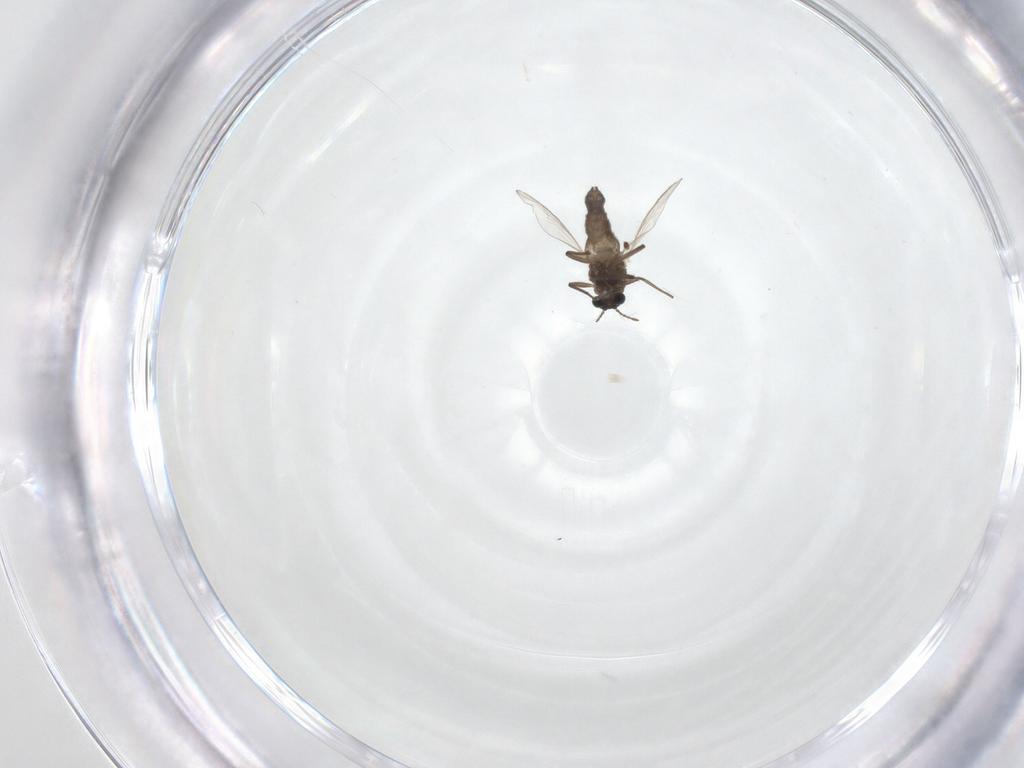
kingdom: Animalia
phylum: Arthropoda
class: Insecta
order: Diptera
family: Chironomidae
